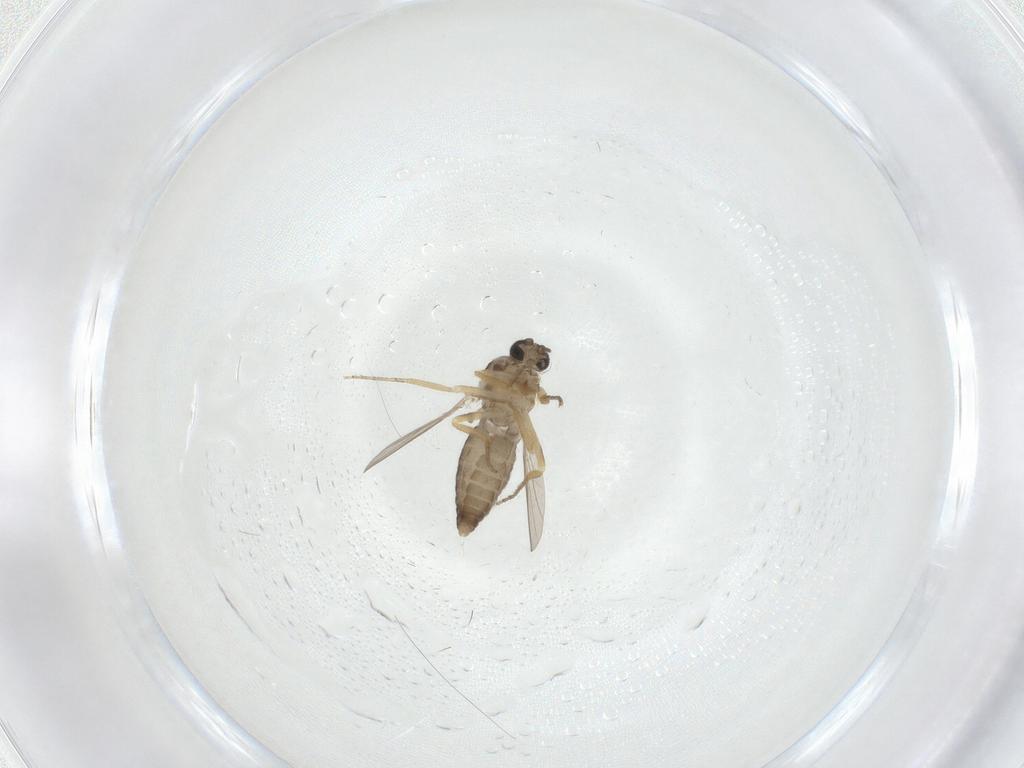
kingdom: Animalia
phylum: Arthropoda
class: Insecta
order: Diptera
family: Ceratopogonidae
